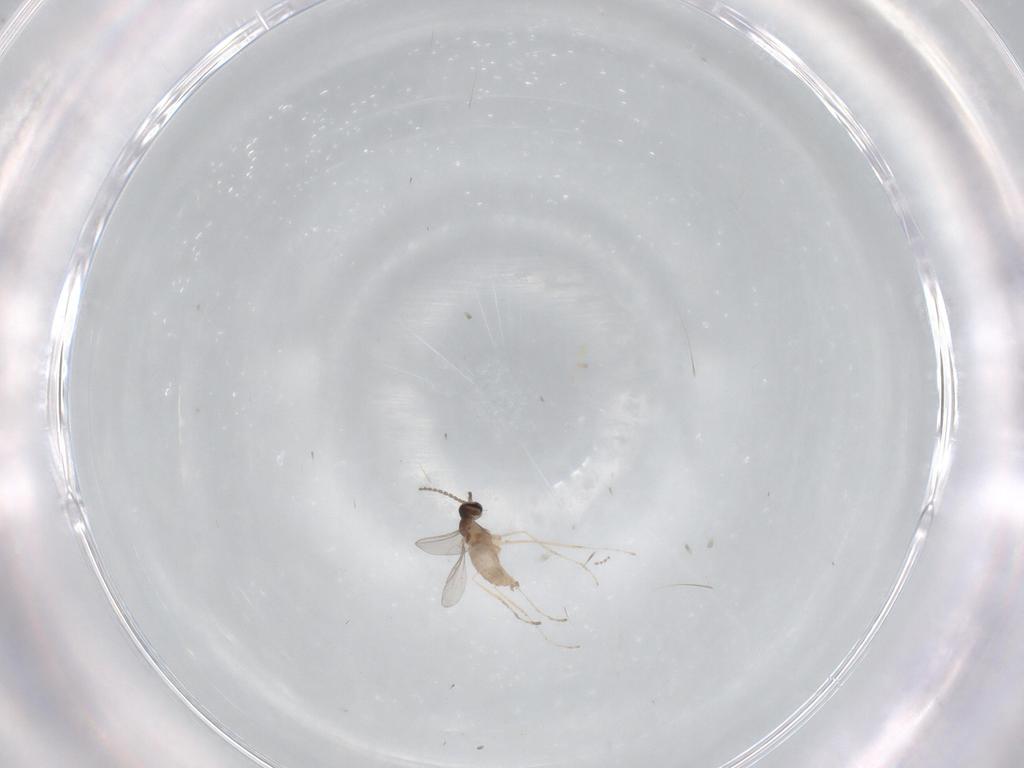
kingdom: Animalia
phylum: Arthropoda
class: Insecta
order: Diptera
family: Cecidomyiidae
